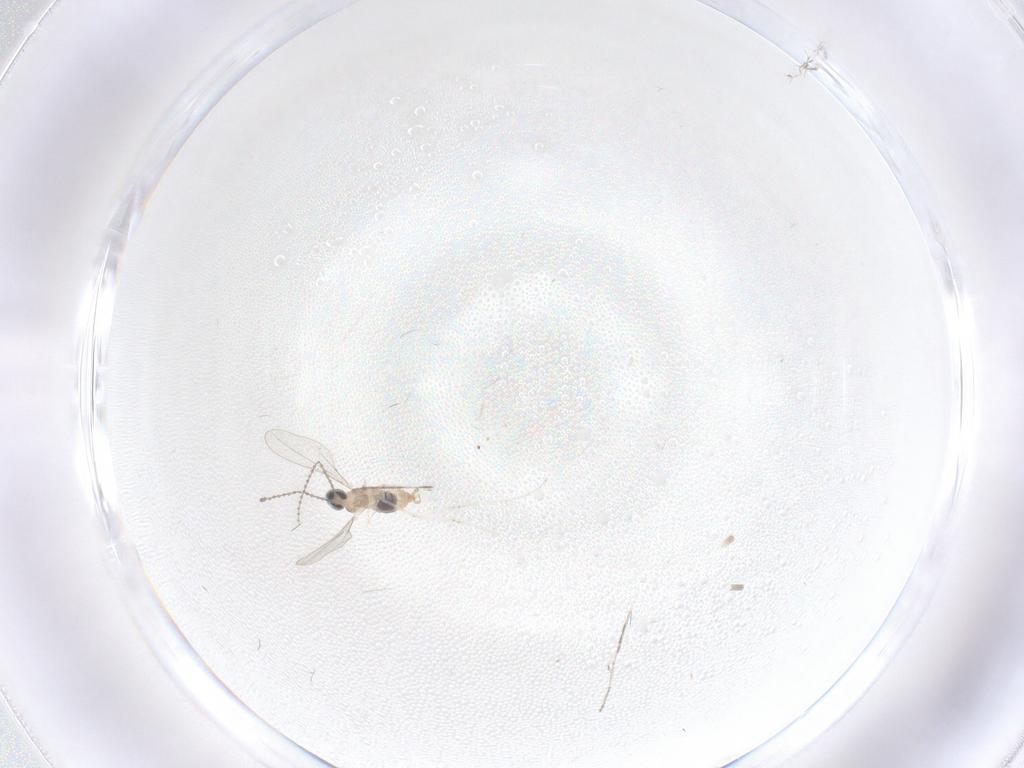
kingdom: Animalia
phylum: Arthropoda
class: Insecta
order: Diptera
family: Cecidomyiidae
